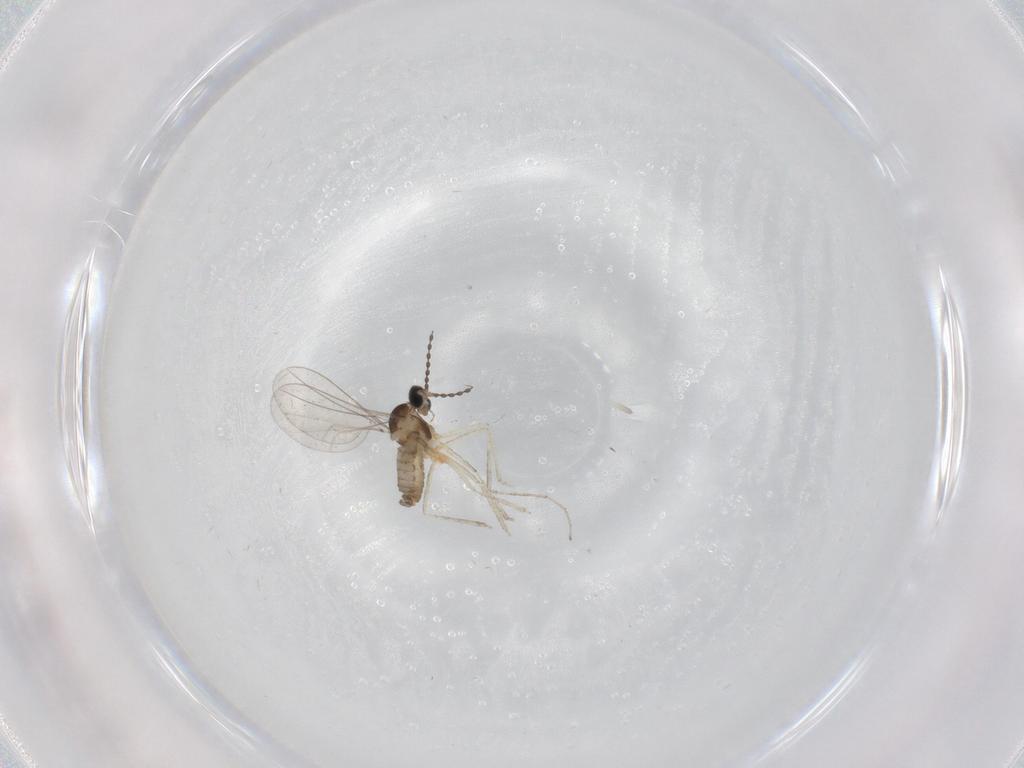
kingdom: Animalia
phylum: Arthropoda
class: Insecta
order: Diptera
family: Cecidomyiidae
